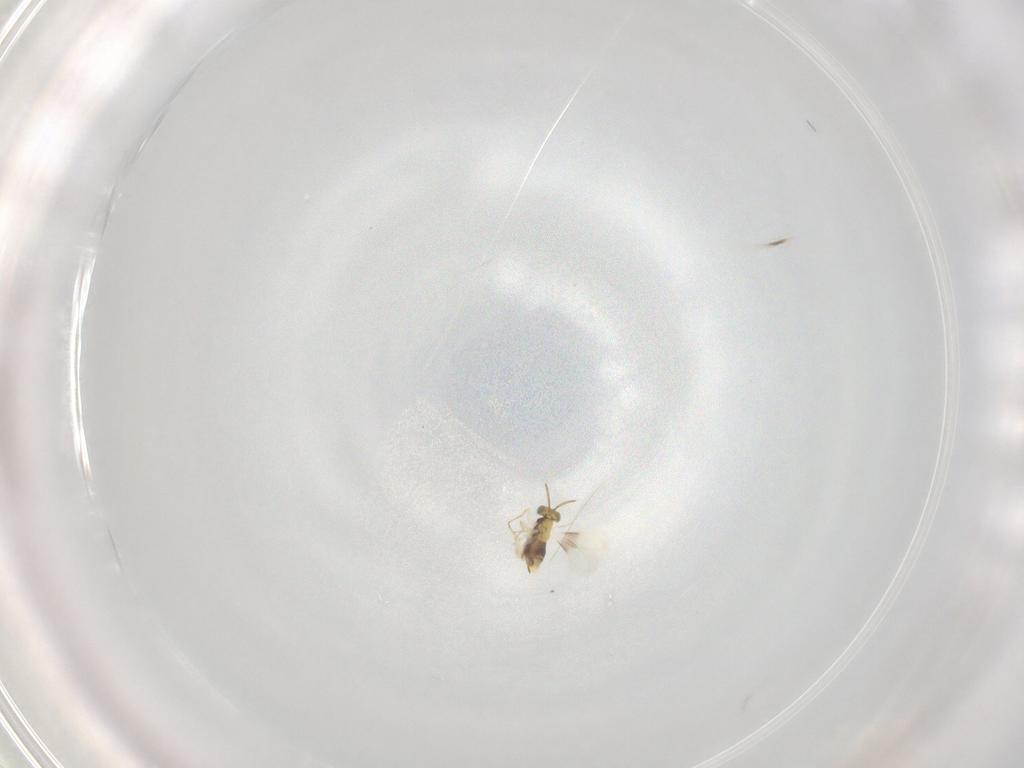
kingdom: Animalia
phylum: Arthropoda
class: Insecta
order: Hymenoptera
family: Aphelinidae
